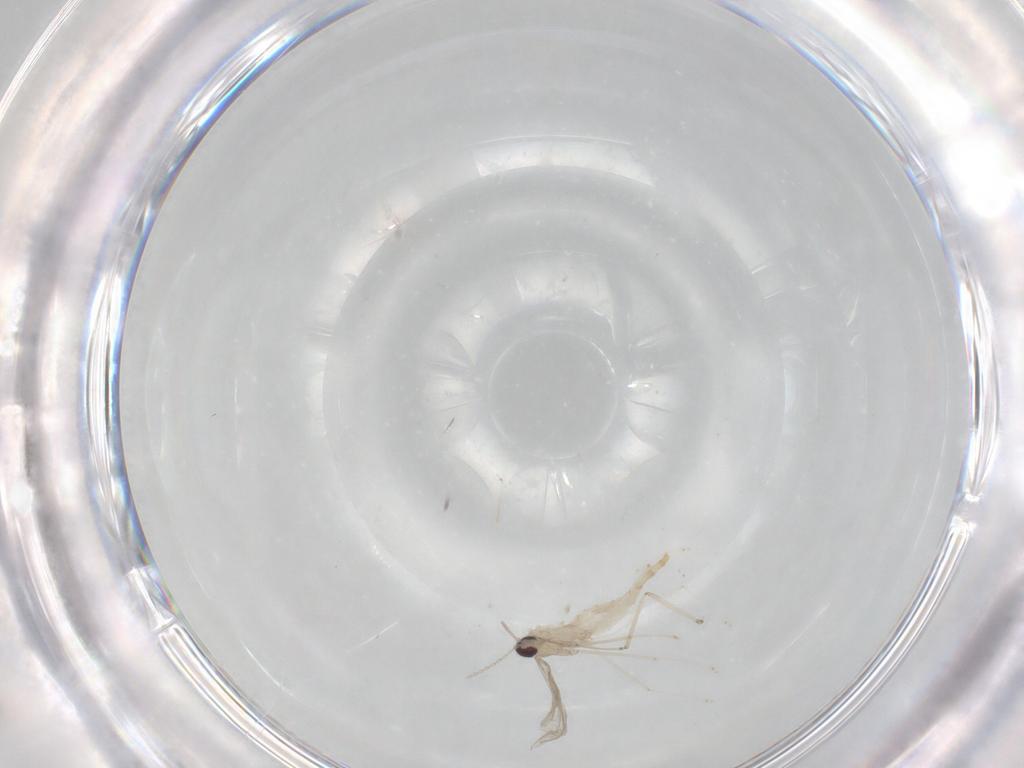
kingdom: Animalia
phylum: Arthropoda
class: Insecta
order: Diptera
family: Cecidomyiidae
